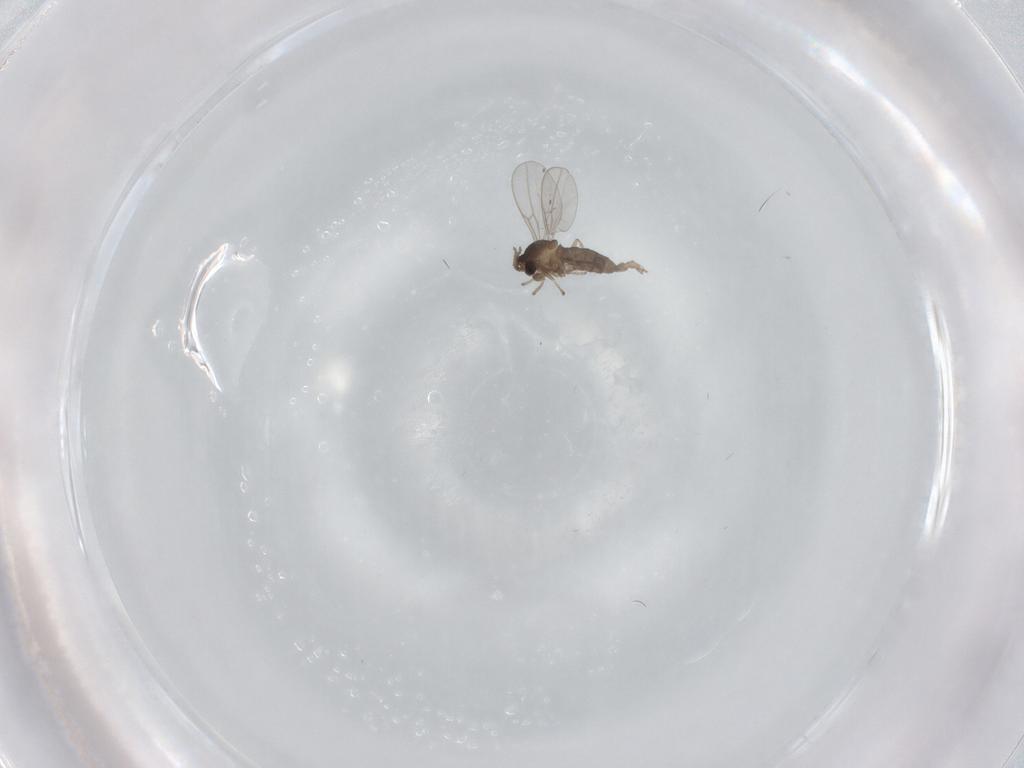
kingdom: Animalia
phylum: Arthropoda
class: Insecta
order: Diptera
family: Cecidomyiidae
